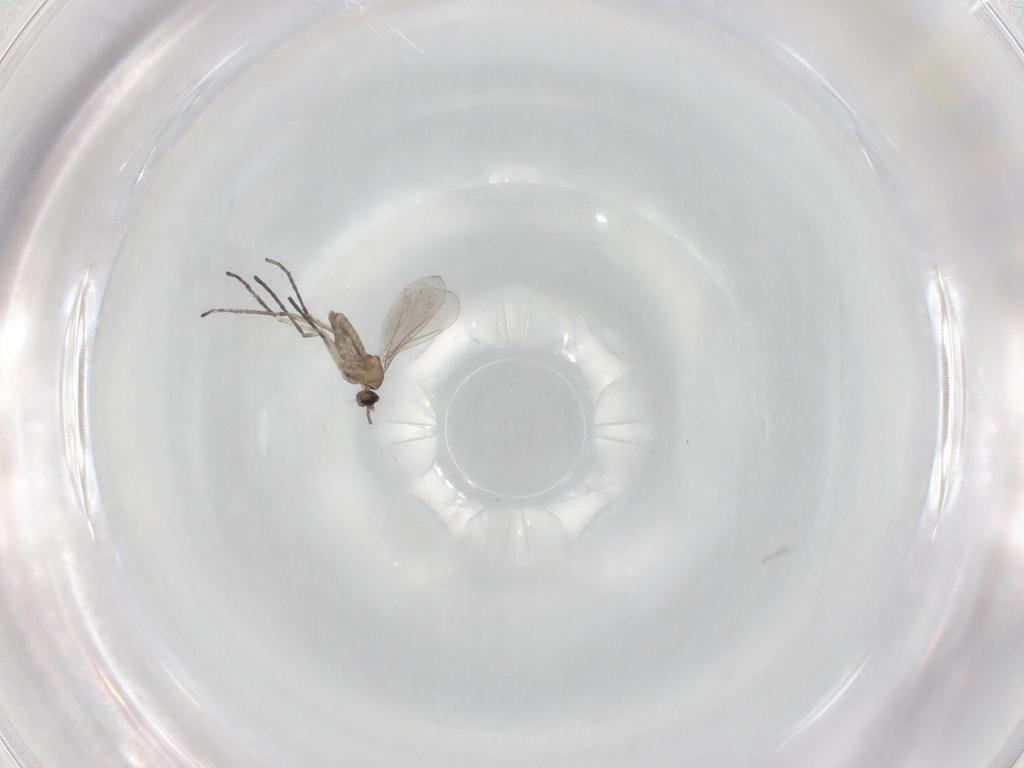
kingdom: Animalia
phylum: Arthropoda
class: Insecta
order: Diptera
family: Cecidomyiidae
